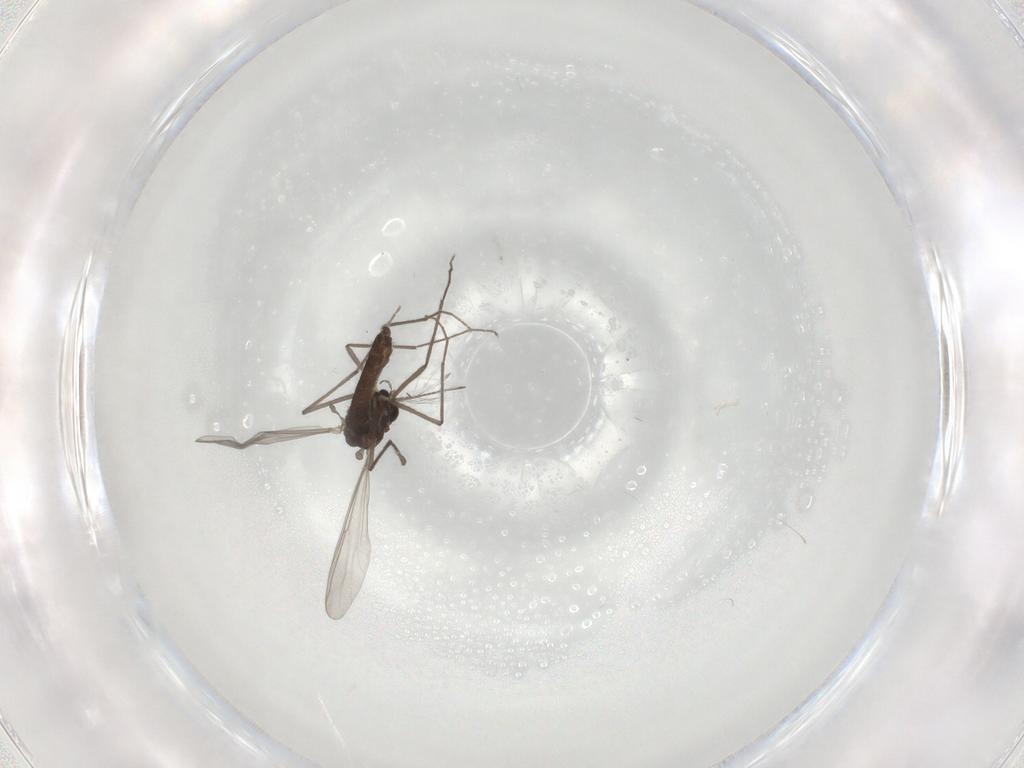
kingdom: Animalia
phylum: Arthropoda
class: Insecta
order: Diptera
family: Chironomidae
